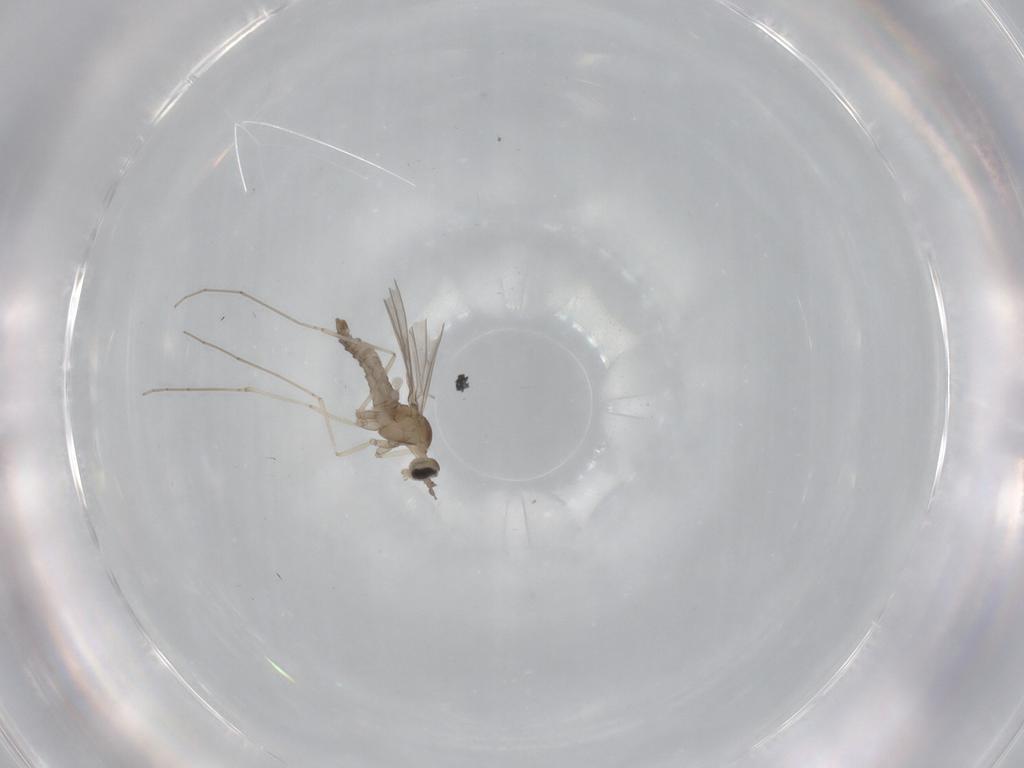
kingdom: Animalia
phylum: Arthropoda
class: Insecta
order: Diptera
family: Cecidomyiidae
